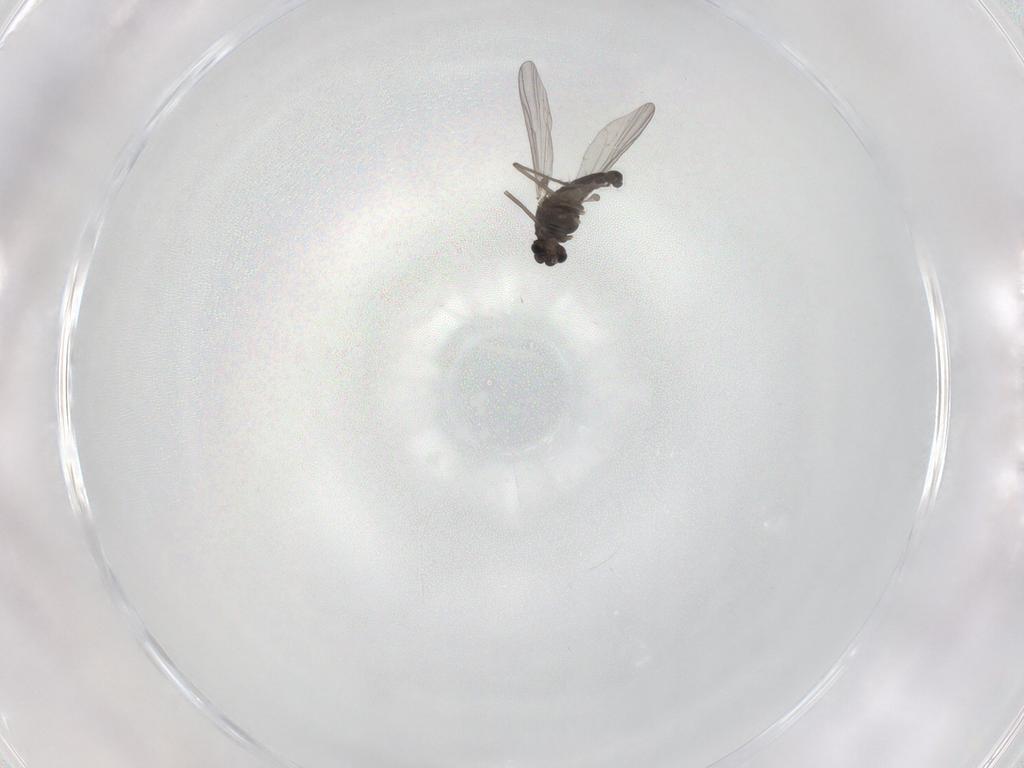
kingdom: Animalia
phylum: Arthropoda
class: Insecta
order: Diptera
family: Chironomidae
